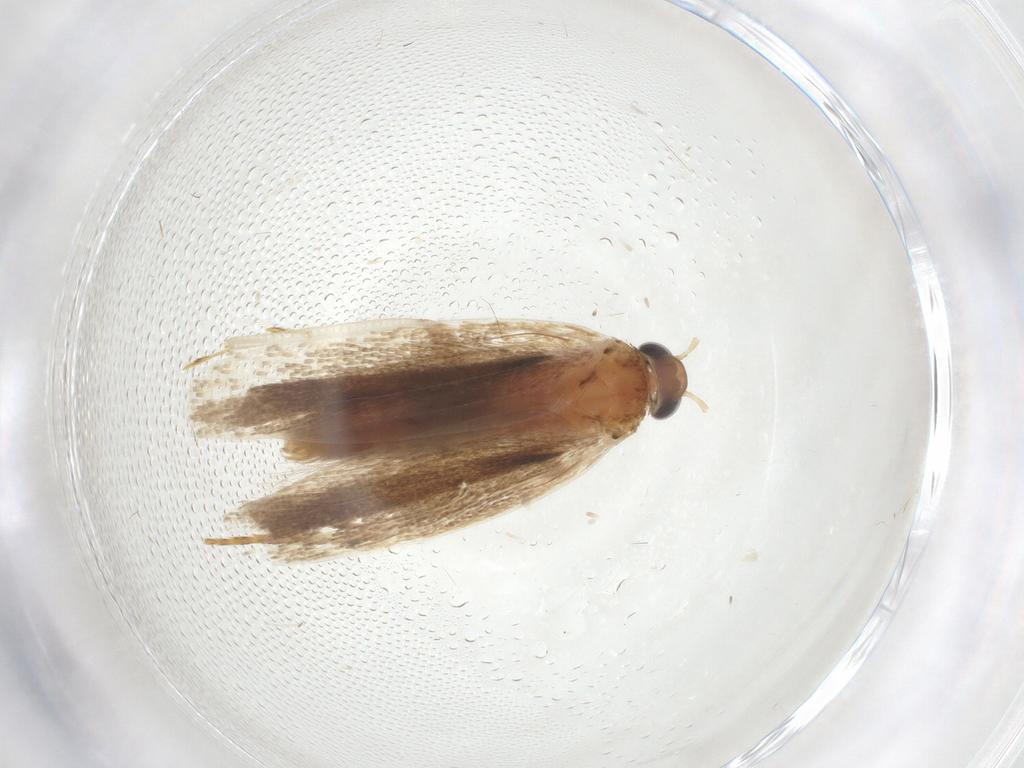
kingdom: Animalia
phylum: Arthropoda
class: Insecta
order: Lepidoptera
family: Gelechiidae
